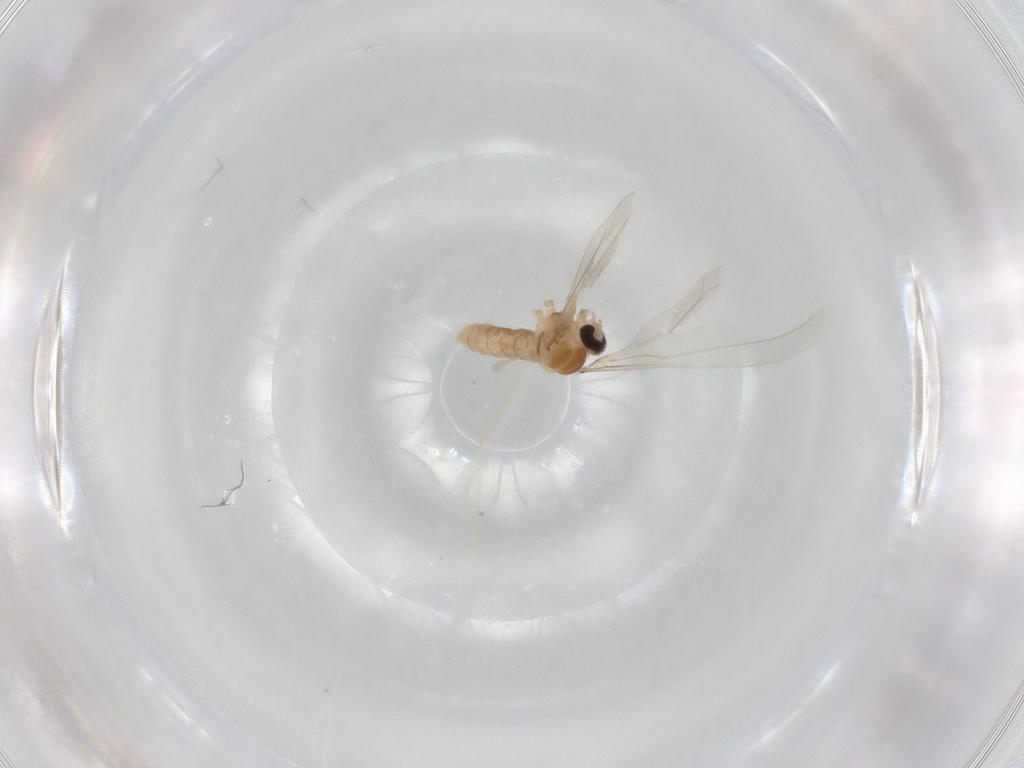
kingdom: Animalia
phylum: Arthropoda
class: Insecta
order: Diptera
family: Cecidomyiidae
